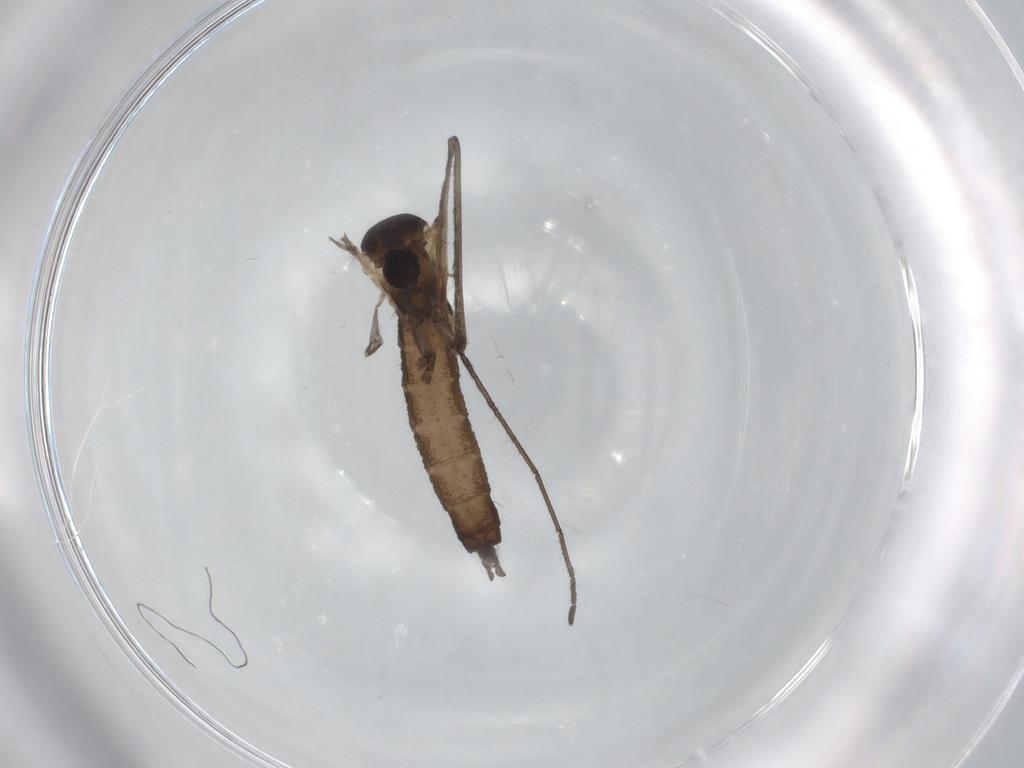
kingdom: Animalia
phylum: Arthropoda
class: Insecta
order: Diptera
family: Cecidomyiidae
